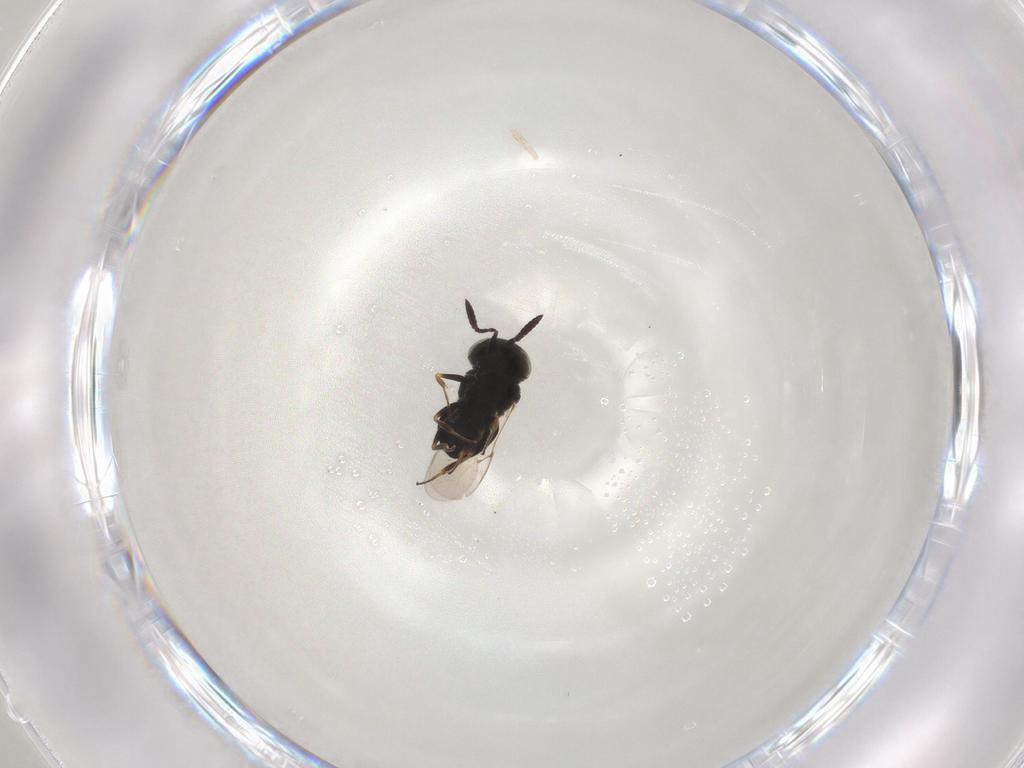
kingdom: Animalia
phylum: Arthropoda
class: Insecta
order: Hymenoptera
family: Scelionidae
